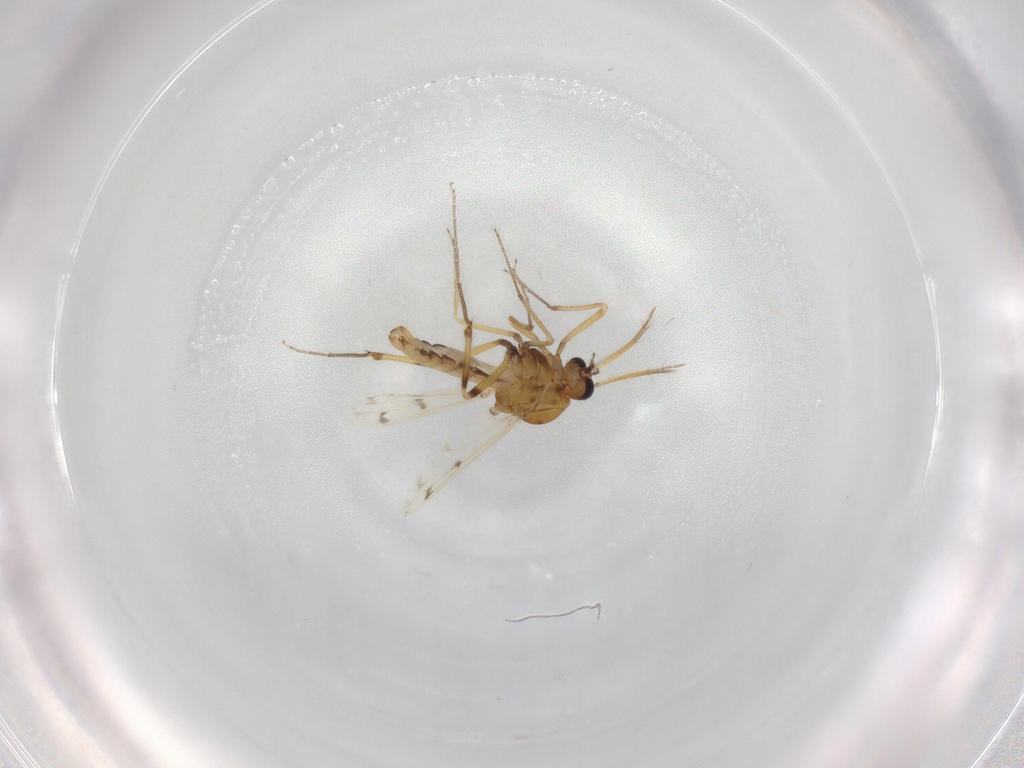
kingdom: Animalia
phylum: Arthropoda
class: Insecta
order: Diptera
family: Ceratopogonidae
